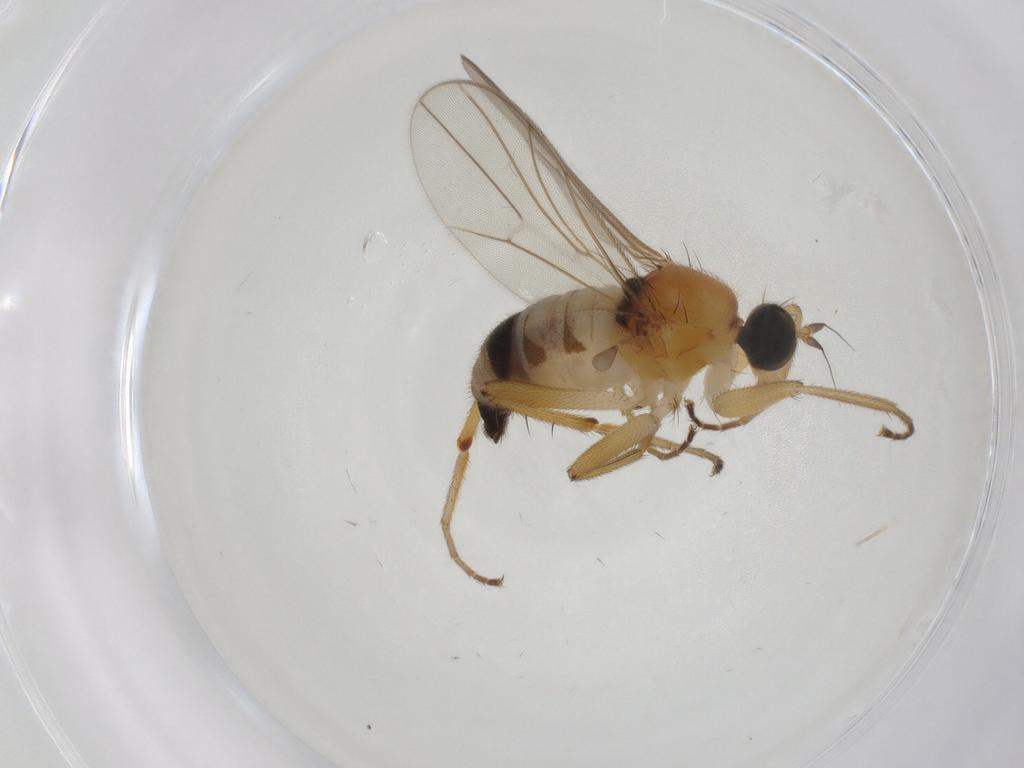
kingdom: Animalia
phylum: Arthropoda
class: Insecta
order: Diptera
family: Hybotidae
